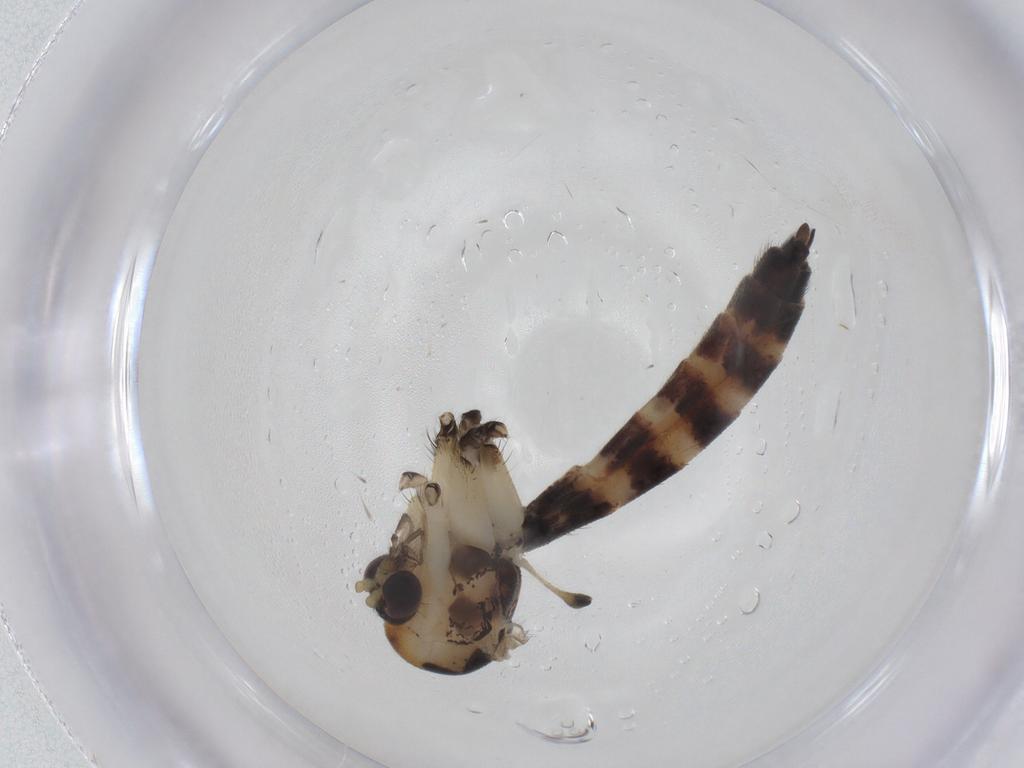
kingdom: Animalia
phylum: Arthropoda
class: Insecta
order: Diptera
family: Mycetophilidae
